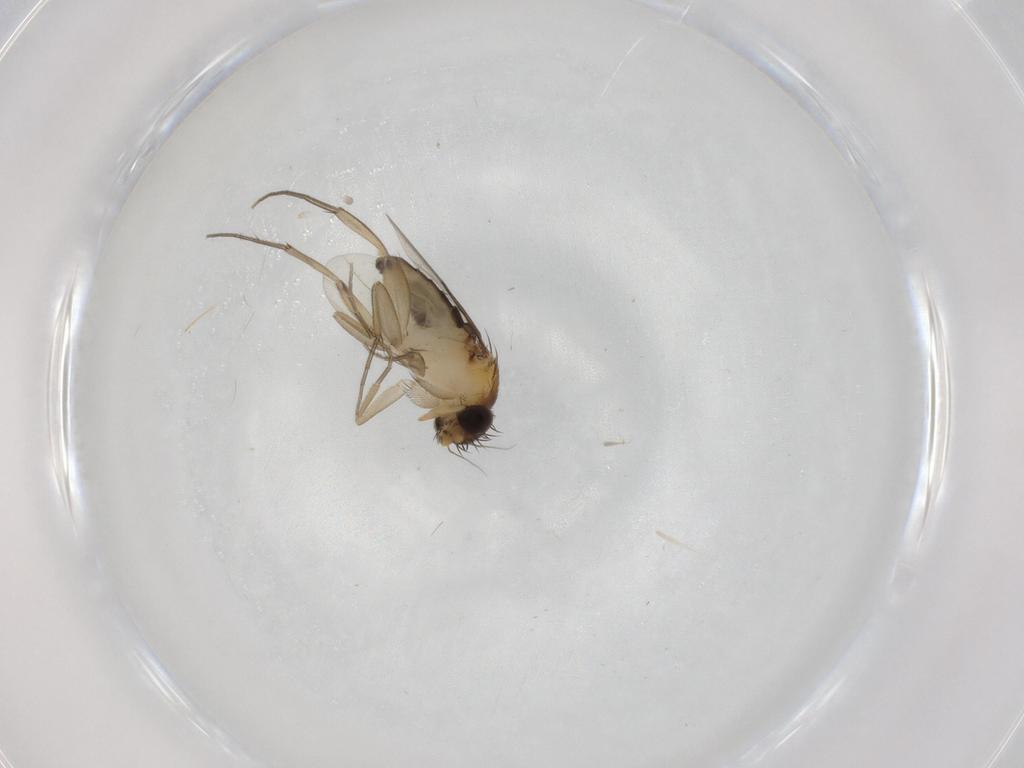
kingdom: Animalia
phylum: Arthropoda
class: Insecta
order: Diptera
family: Phoridae
